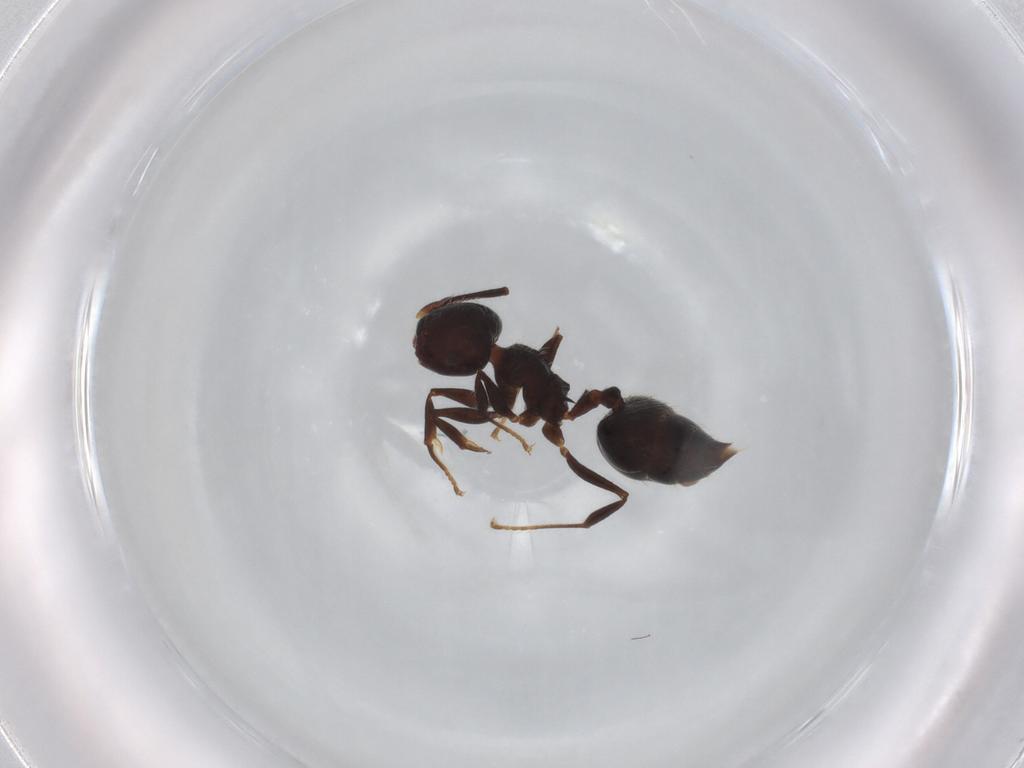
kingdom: Animalia
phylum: Arthropoda
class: Insecta
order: Hymenoptera
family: Formicidae
